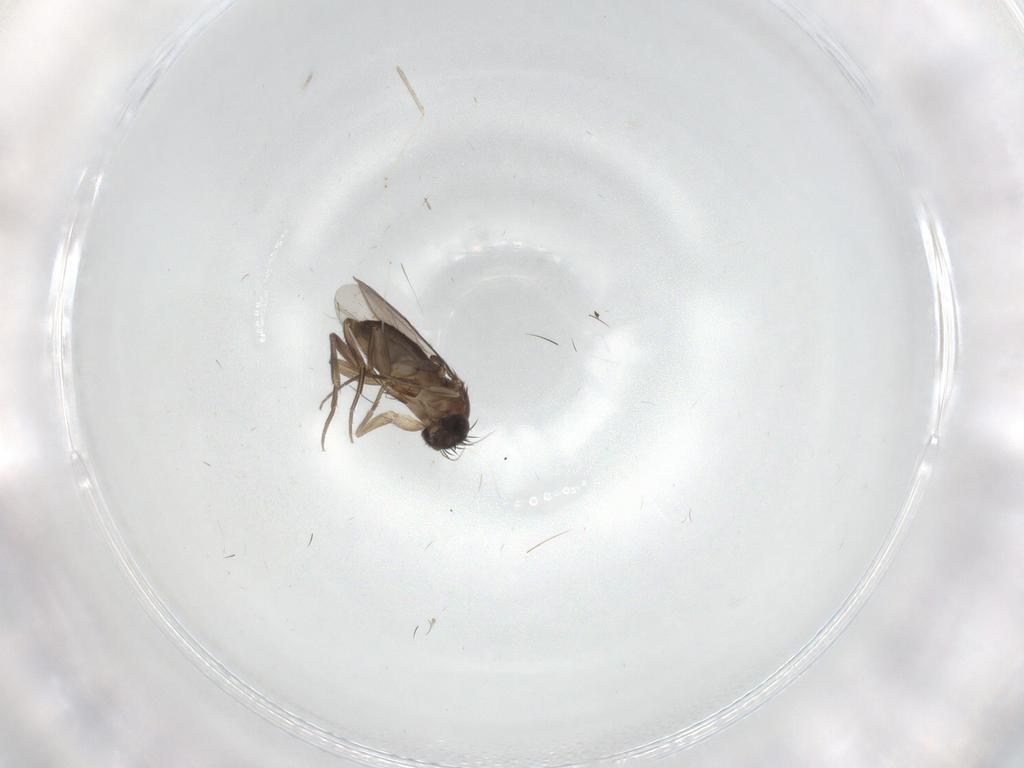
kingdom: Animalia
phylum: Arthropoda
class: Insecta
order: Diptera
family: Phoridae
